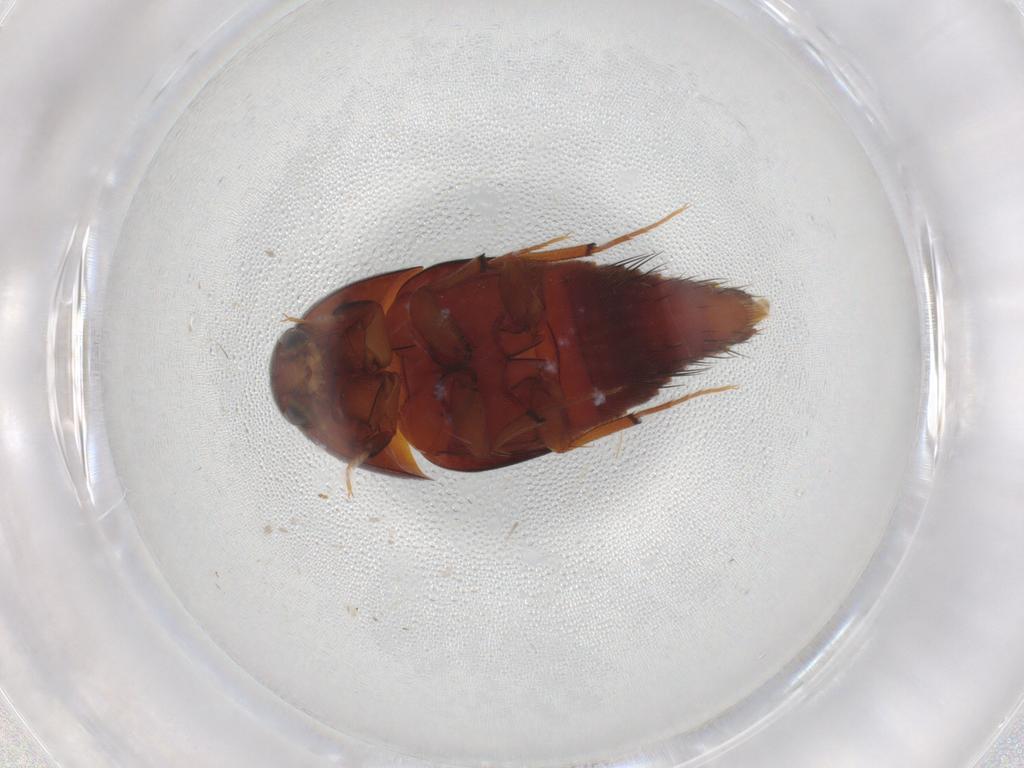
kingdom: Animalia
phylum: Arthropoda
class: Insecta
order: Coleoptera
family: Staphylinidae
